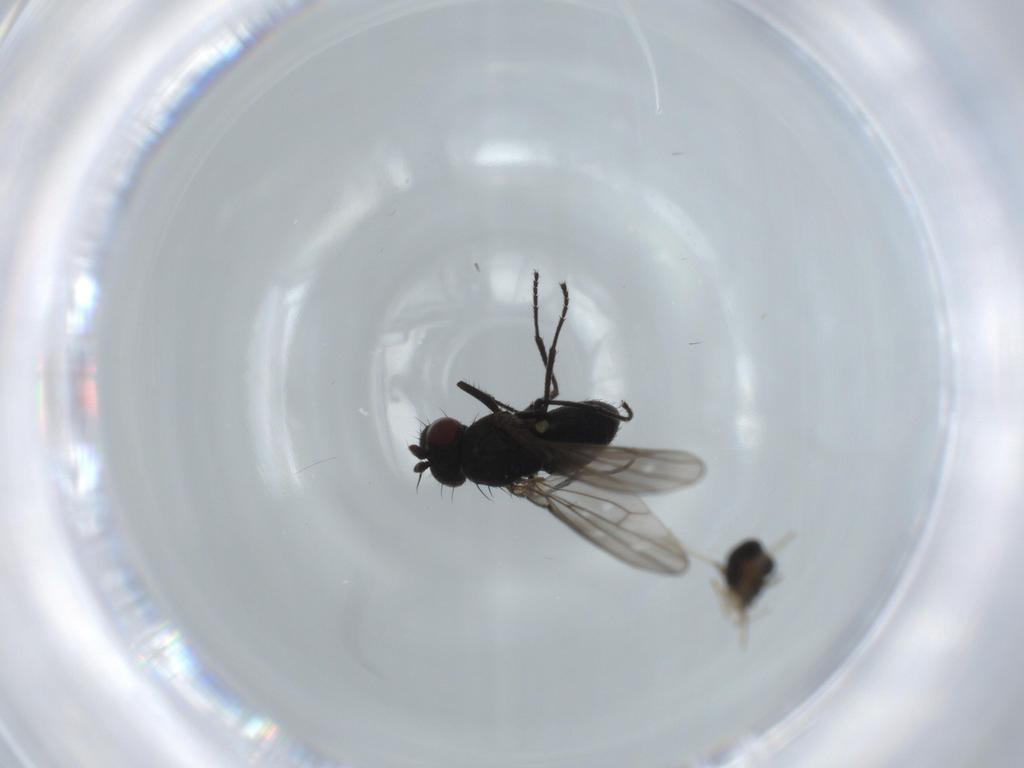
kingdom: Animalia
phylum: Arthropoda
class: Insecta
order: Diptera
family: Chironomidae
